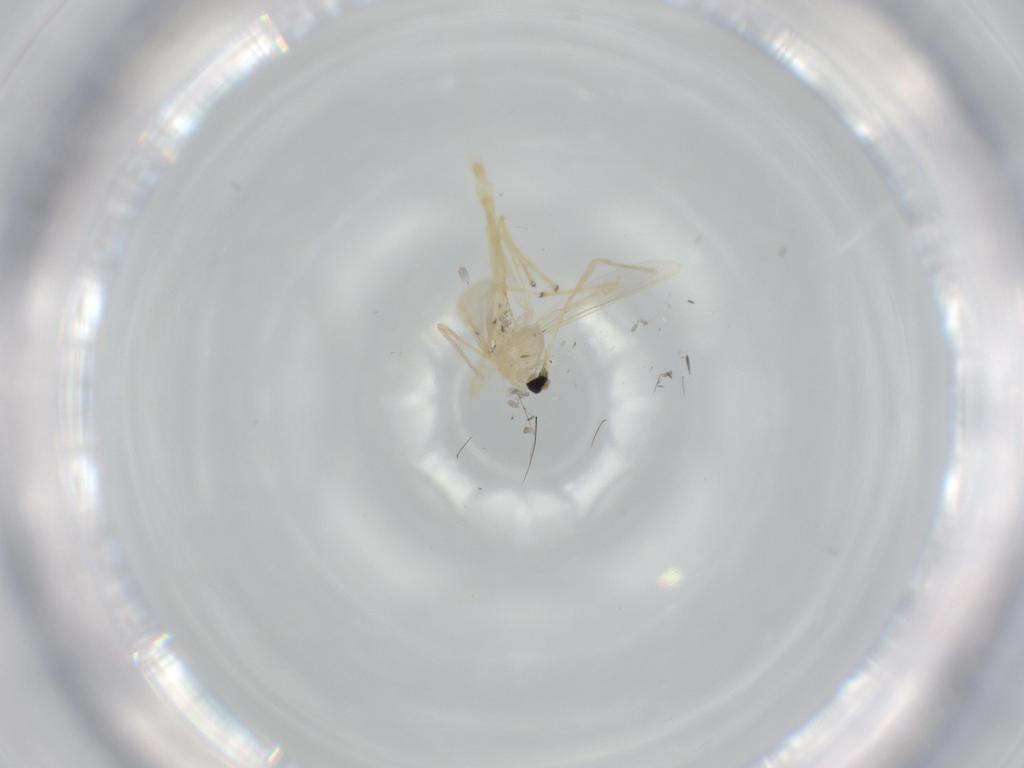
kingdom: Animalia
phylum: Arthropoda
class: Insecta
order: Diptera
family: Chironomidae
